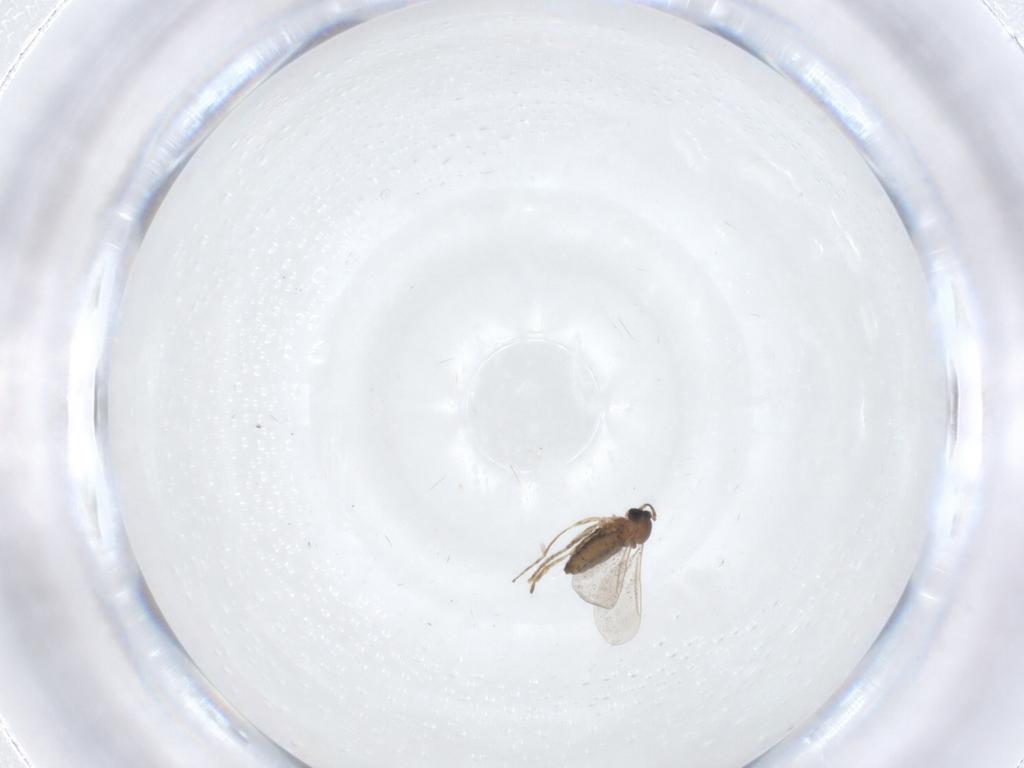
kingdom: Animalia
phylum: Arthropoda
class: Insecta
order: Diptera
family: Cecidomyiidae
